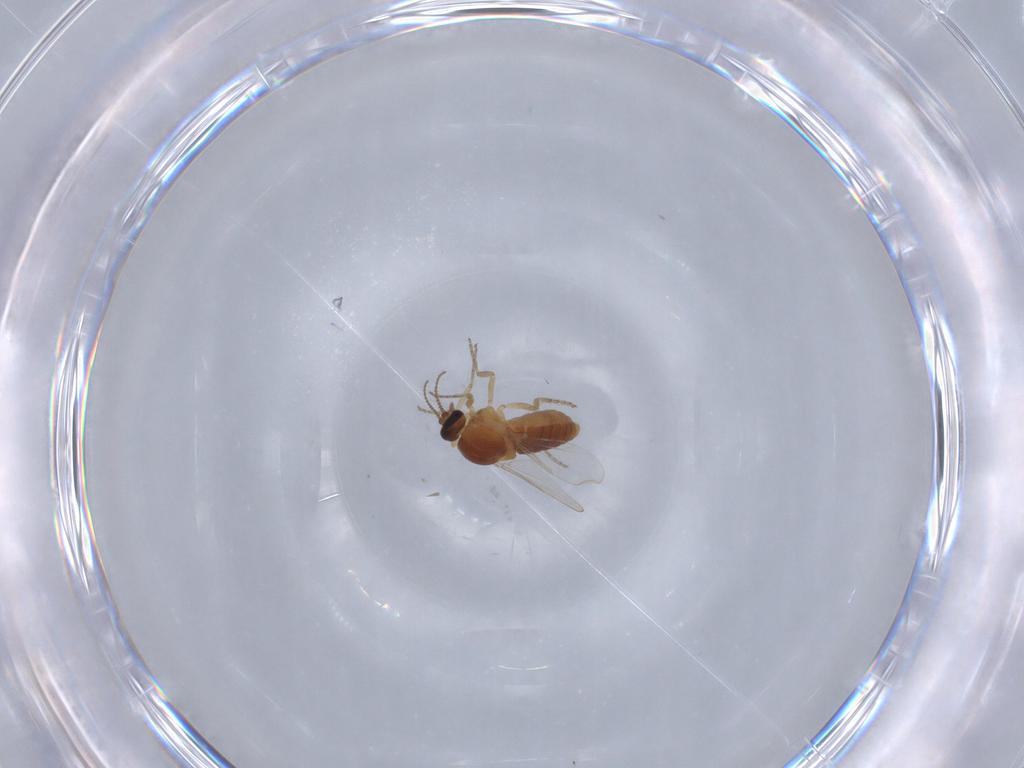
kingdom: Animalia
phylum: Arthropoda
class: Insecta
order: Diptera
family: Ceratopogonidae
